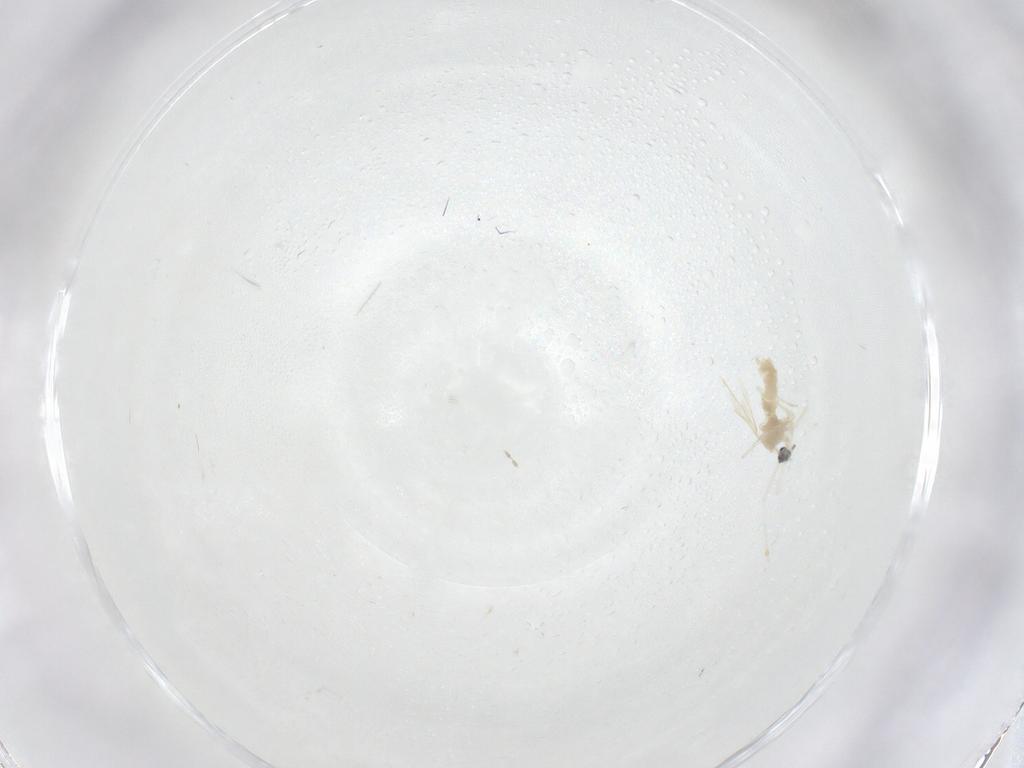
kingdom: Animalia
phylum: Arthropoda
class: Insecta
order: Diptera
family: Cecidomyiidae
